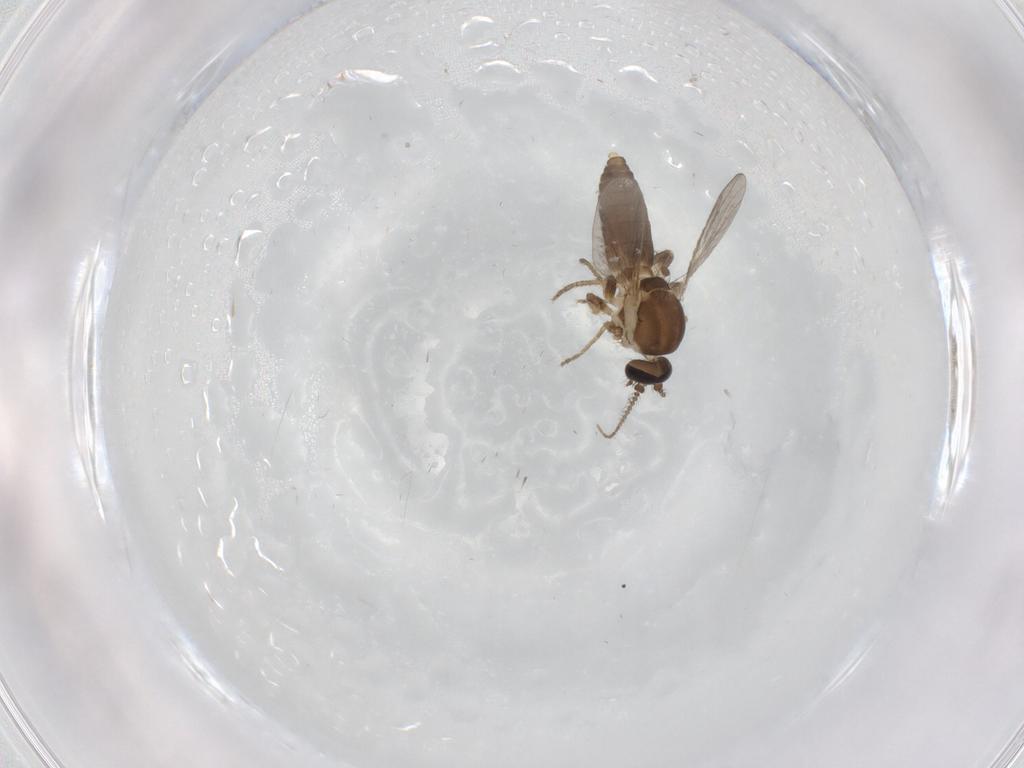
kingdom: Animalia
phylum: Arthropoda
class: Insecta
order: Diptera
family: Ceratopogonidae
